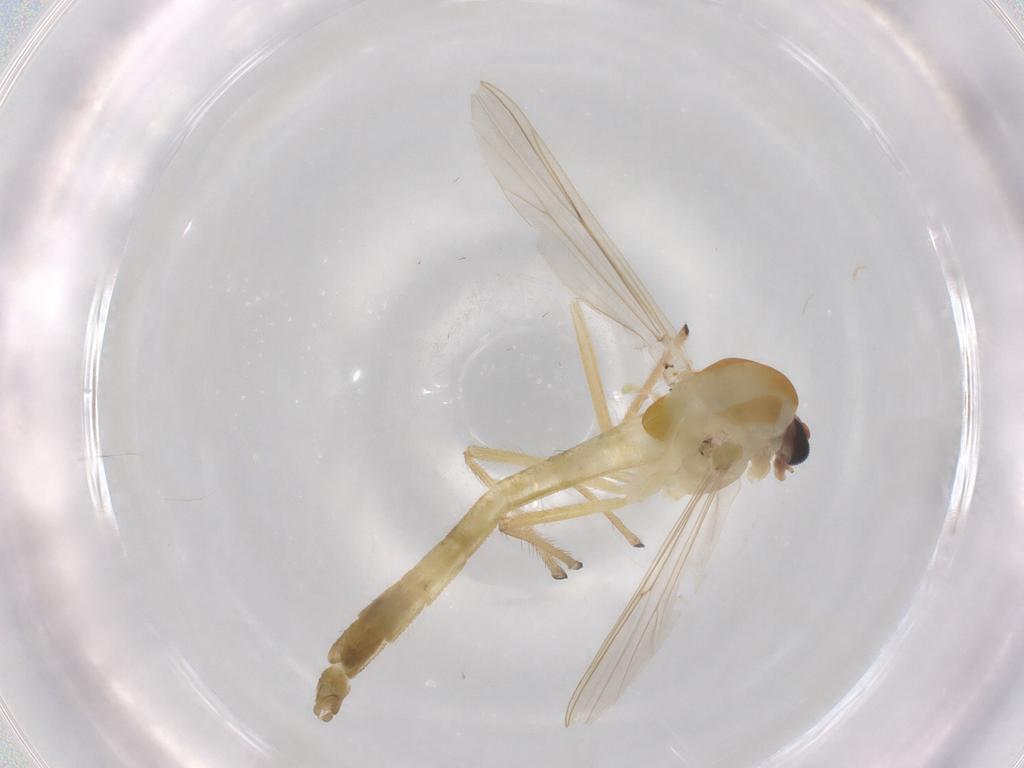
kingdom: Animalia
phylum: Arthropoda
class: Insecta
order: Diptera
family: Chironomidae
